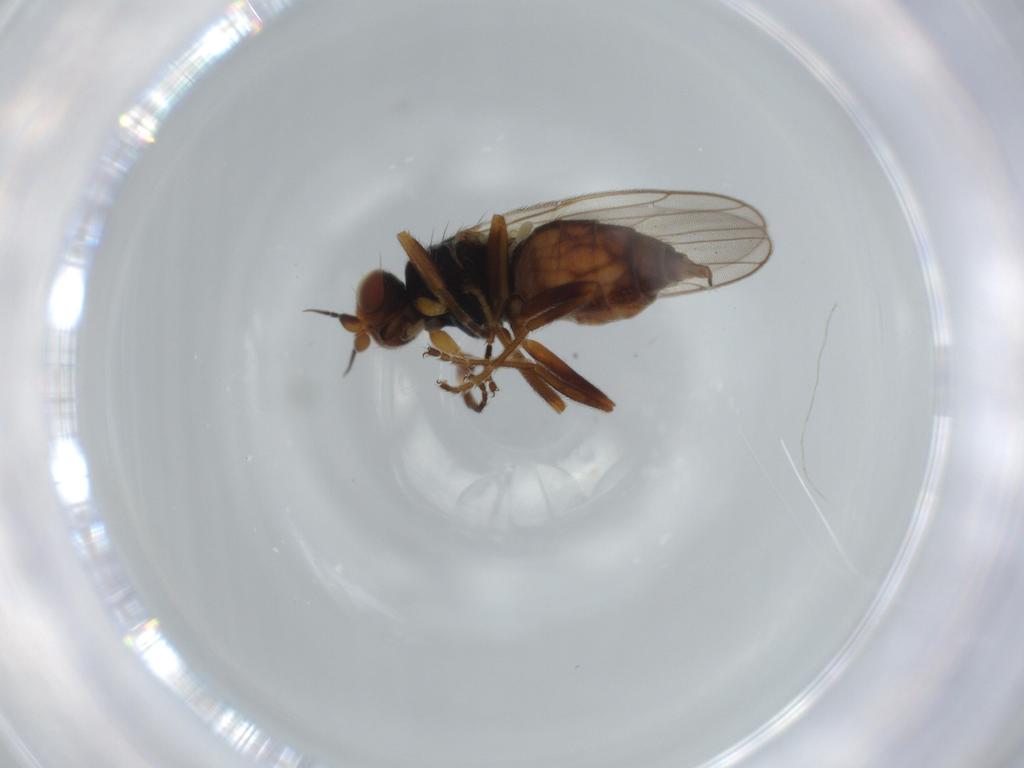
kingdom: Animalia
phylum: Arthropoda
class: Insecta
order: Diptera
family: Chloropidae
